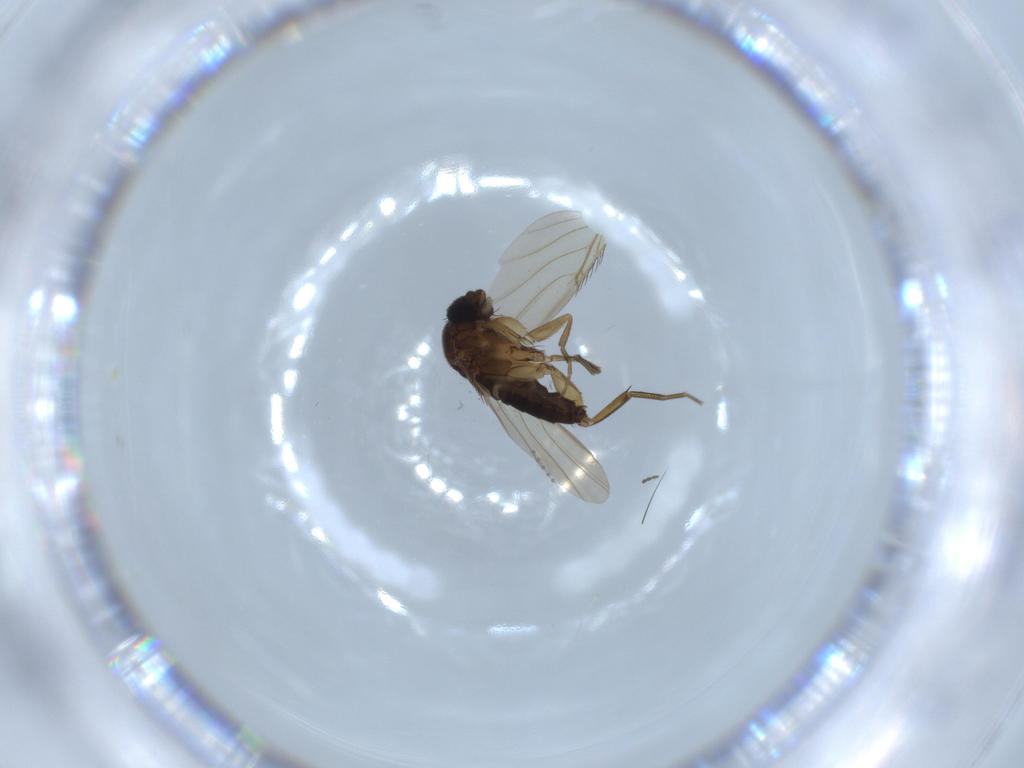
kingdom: Animalia
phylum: Arthropoda
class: Insecta
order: Diptera
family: Phoridae
